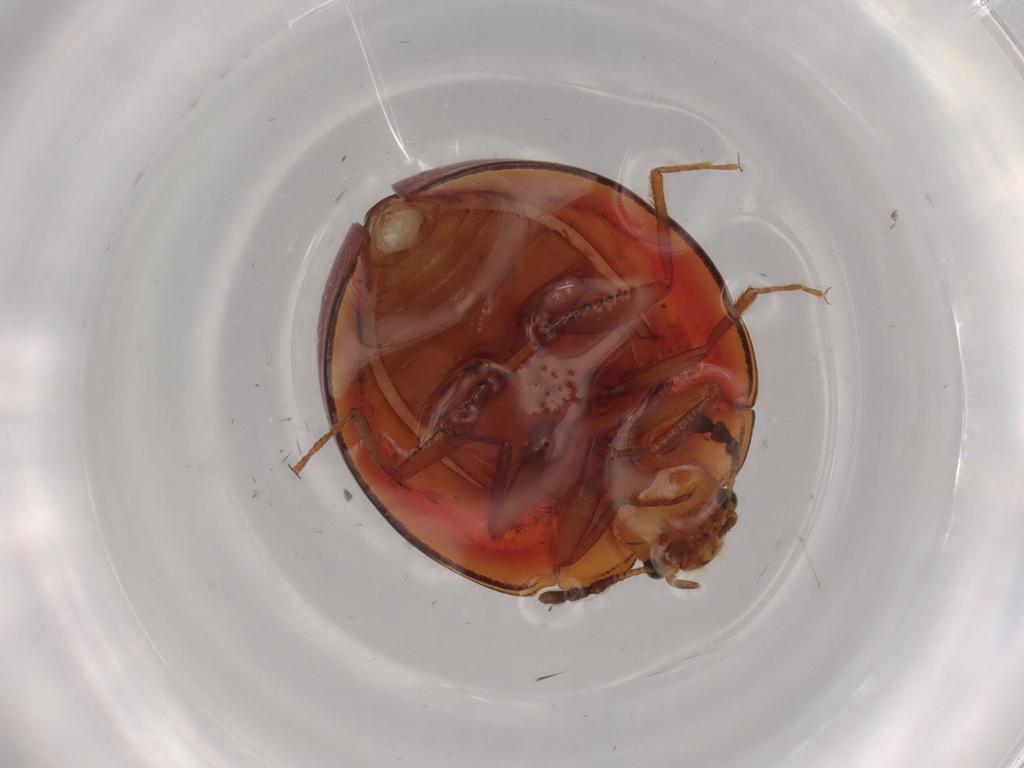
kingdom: Animalia
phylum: Arthropoda
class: Insecta
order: Coleoptera
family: Anamorphidae
